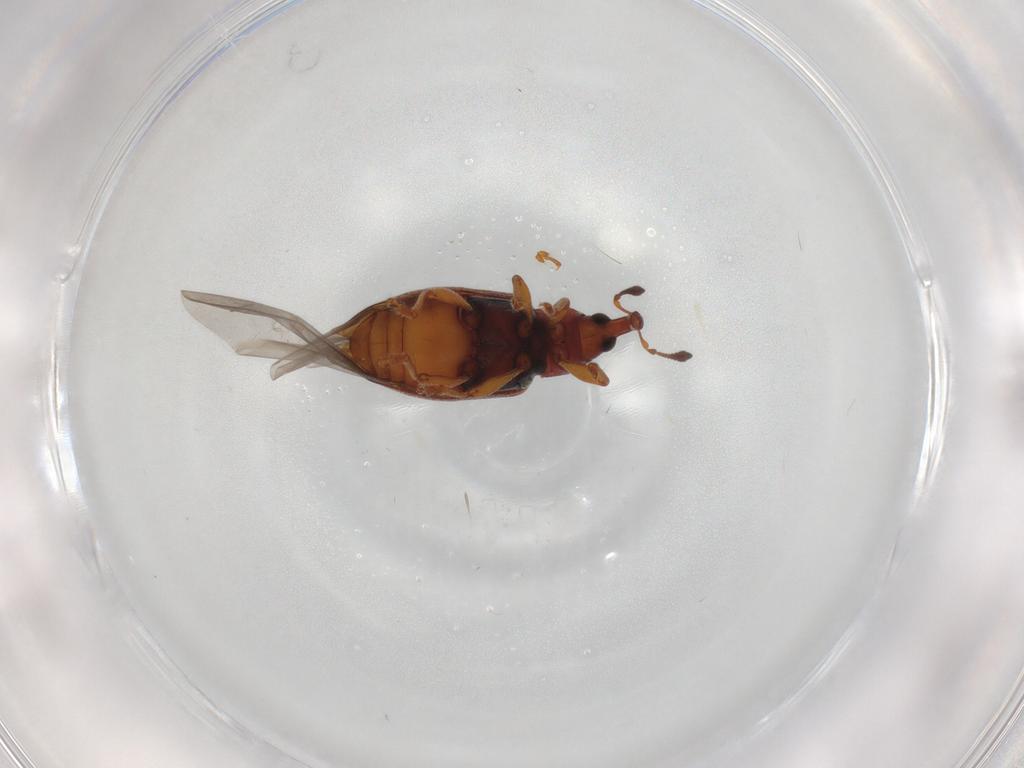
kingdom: Animalia
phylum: Arthropoda
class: Insecta
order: Coleoptera
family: Curculionidae
